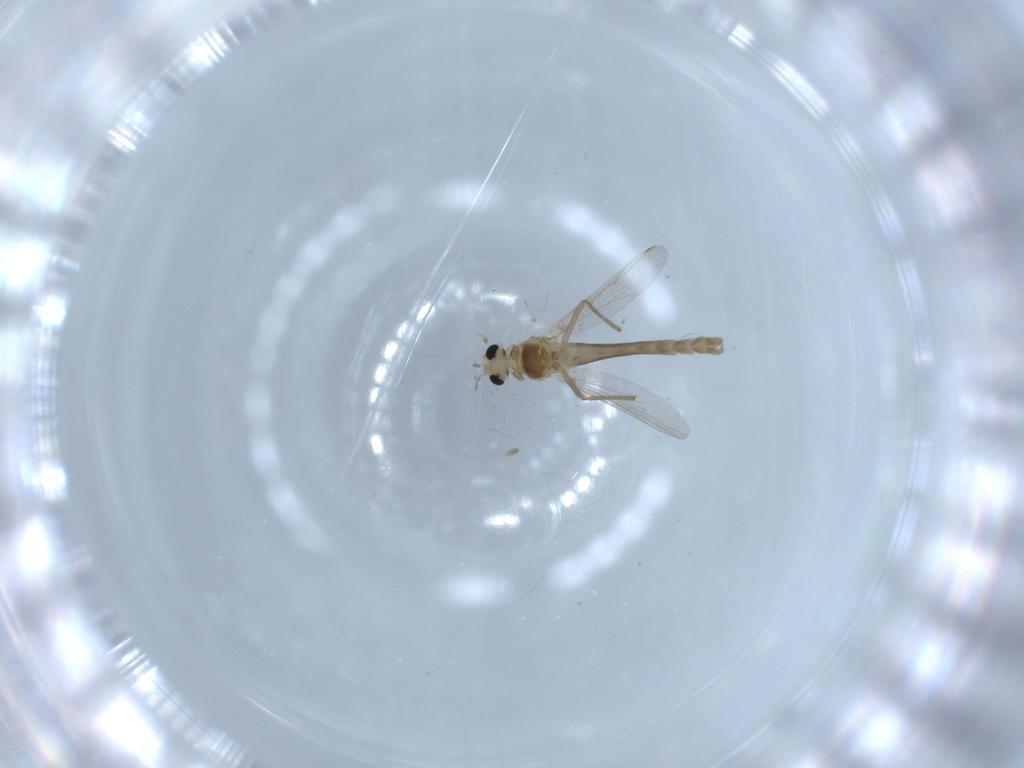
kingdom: Animalia
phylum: Arthropoda
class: Insecta
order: Diptera
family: Chironomidae
